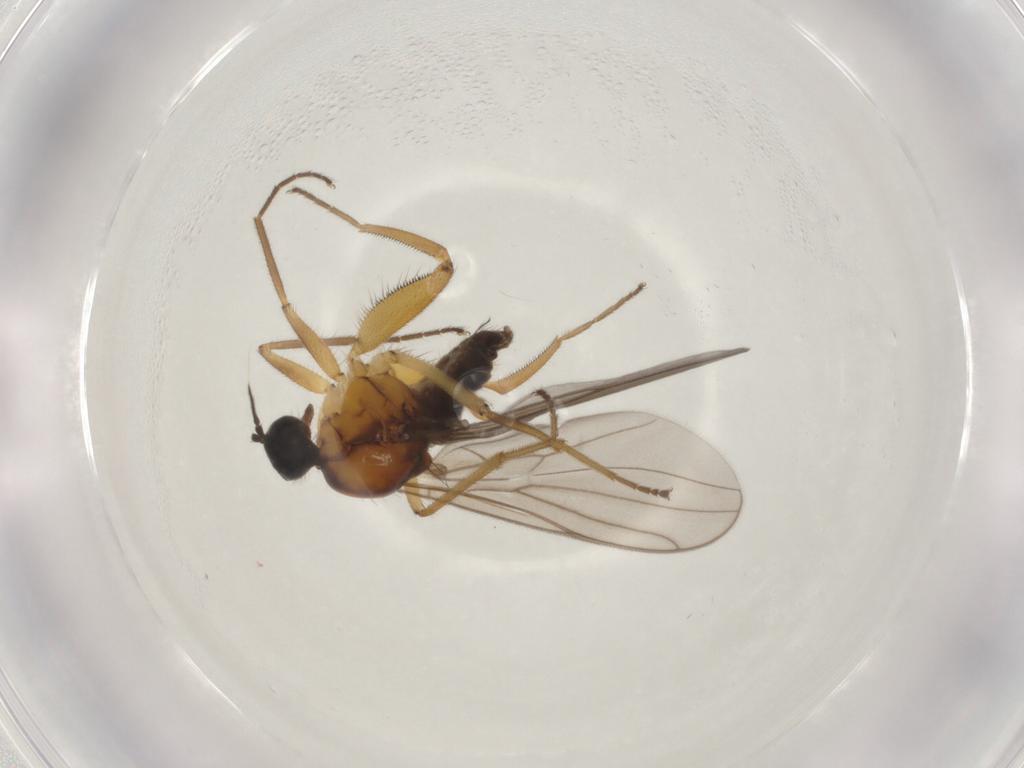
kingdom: Animalia
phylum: Arthropoda
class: Insecta
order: Diptera
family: Hybotidae
